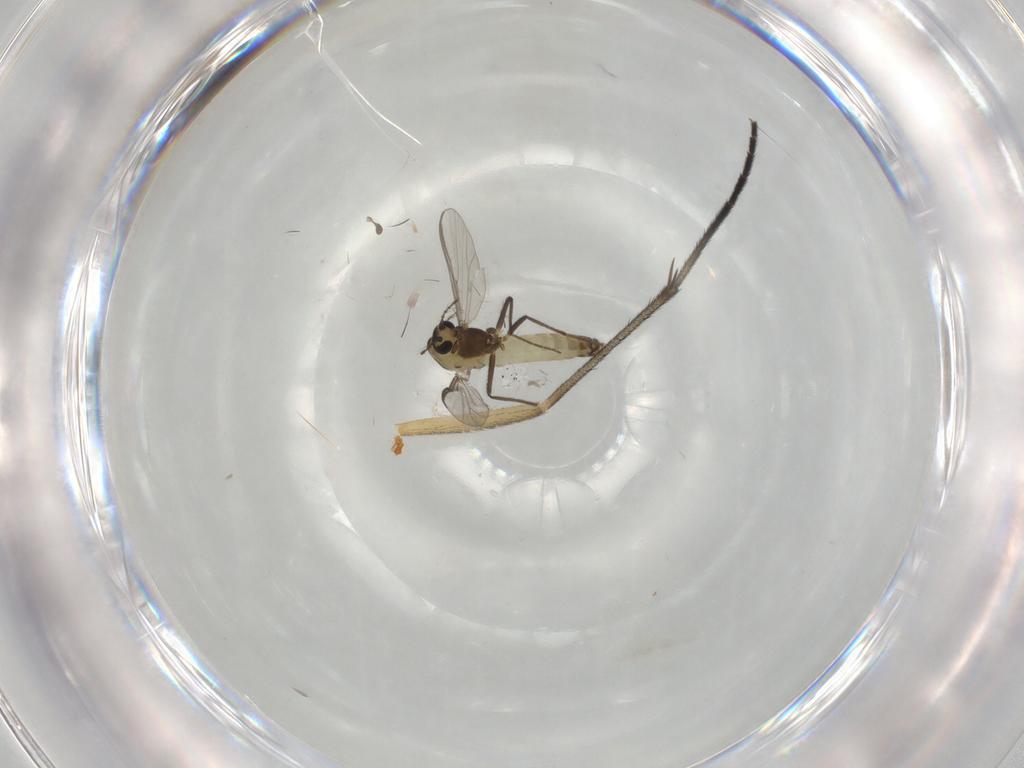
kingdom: Animalia
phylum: Arthropoda
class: Insecta
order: Diptera
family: Chironomidae
